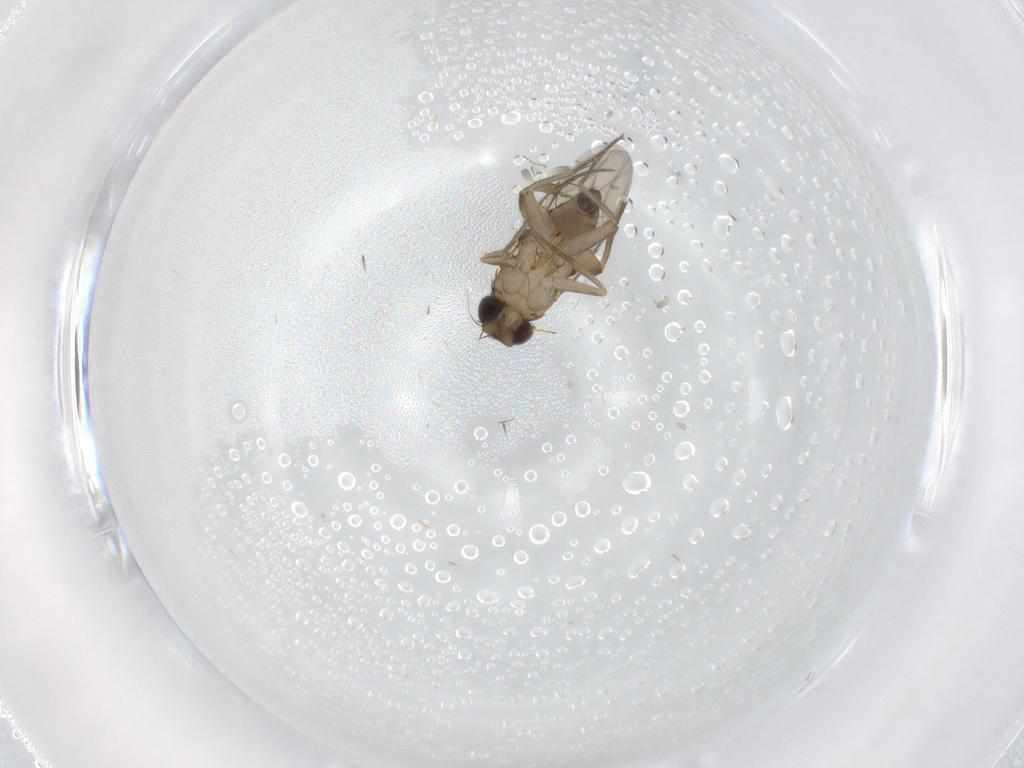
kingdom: Animalia
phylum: Arthropoda
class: Insecta
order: Diptera
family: Phoridae
